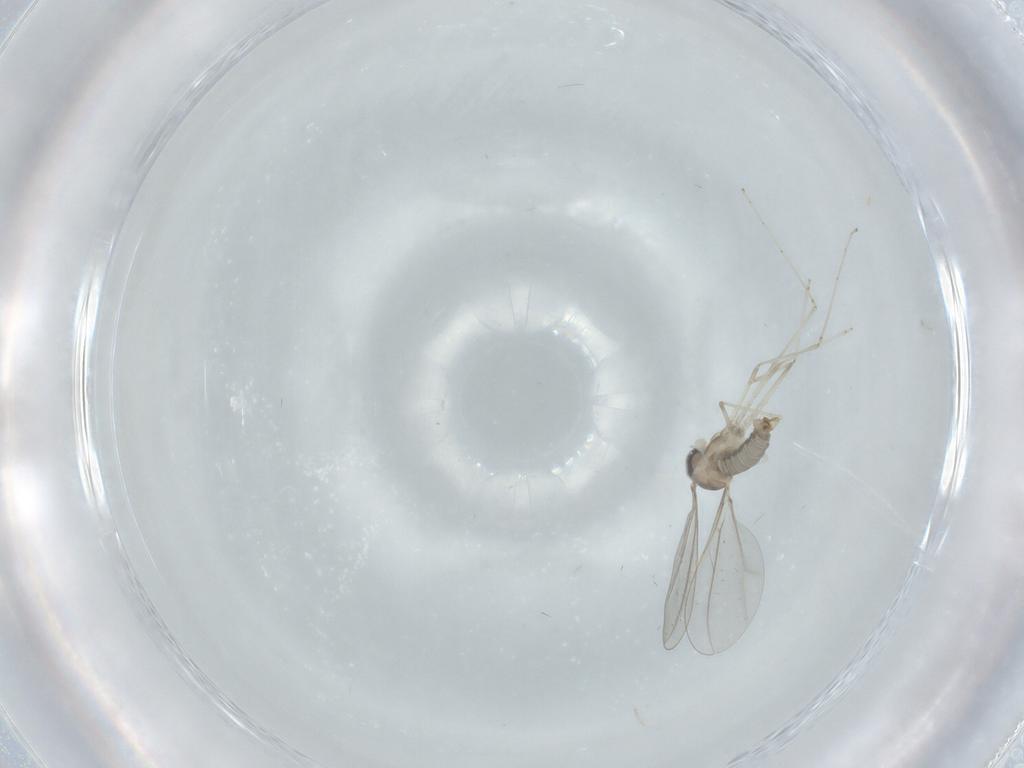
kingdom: Animalia
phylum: Arthropoda
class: Insecta
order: Diptera
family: Cecidomyiidae
